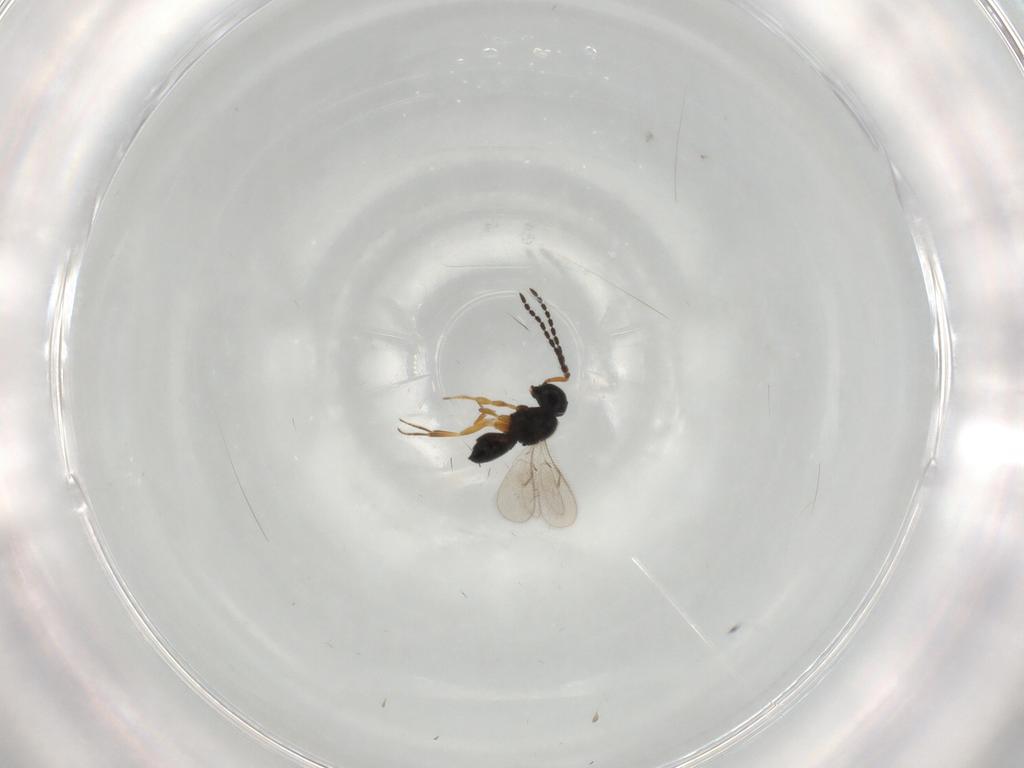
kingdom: Animalia
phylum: Arthropoda
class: Insecta
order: Hymenoptera
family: Scelionidae
